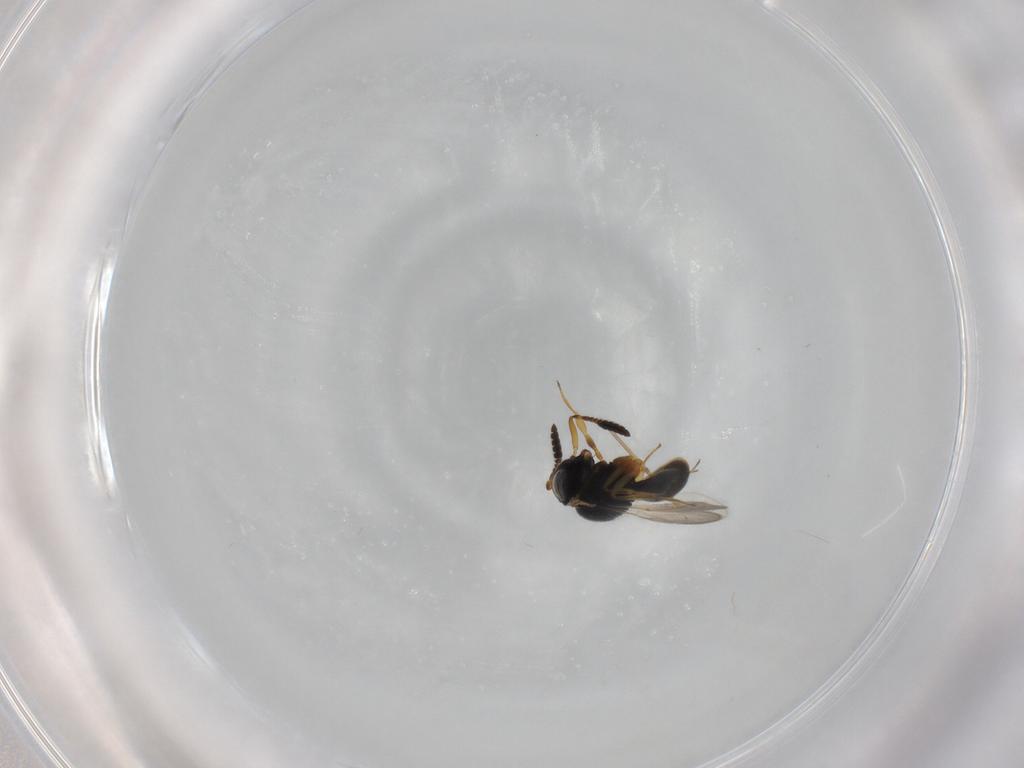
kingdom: Animalia
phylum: Arthropoda
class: Insecta
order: Hymenoptera
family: Scelionidae
